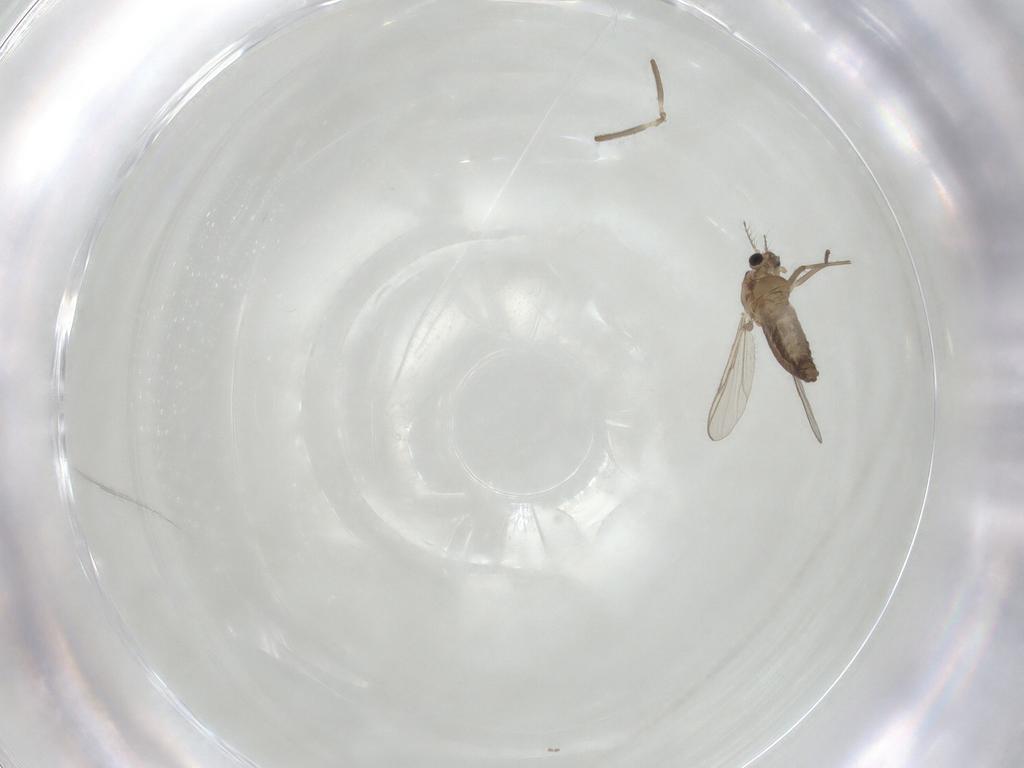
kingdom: Animalia
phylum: Arthropoda
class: Insecta
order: Diptera
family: Chironomidae
